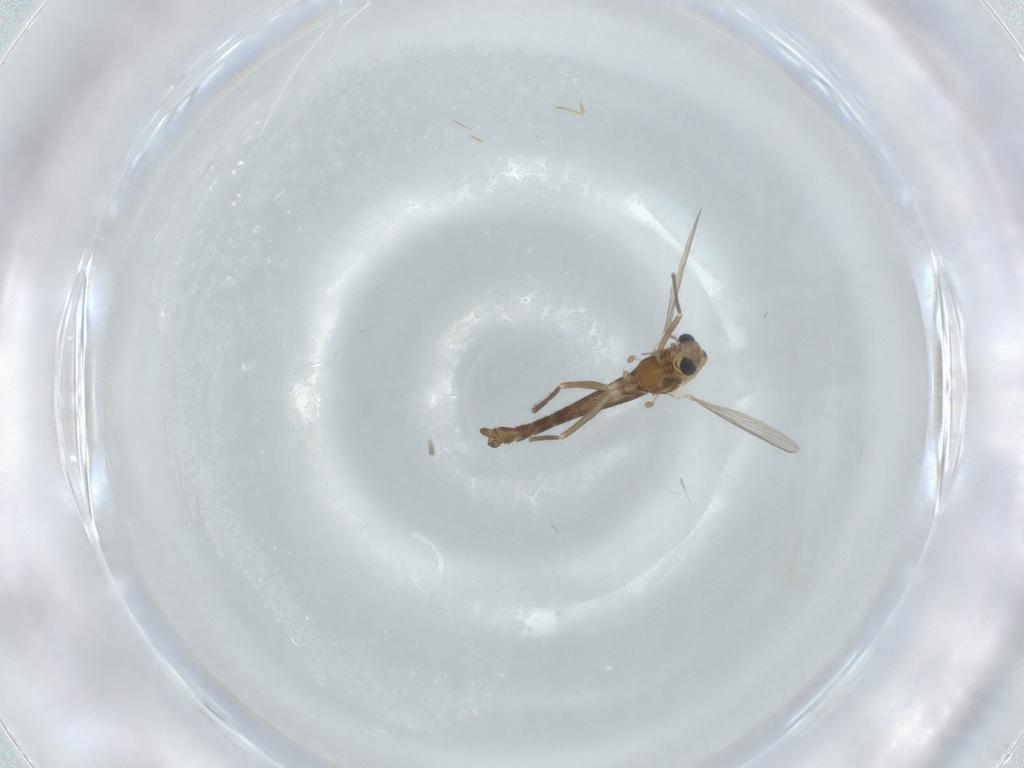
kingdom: Animalia
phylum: Arthropoda
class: Insecta
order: Diptera
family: Chironomidae
